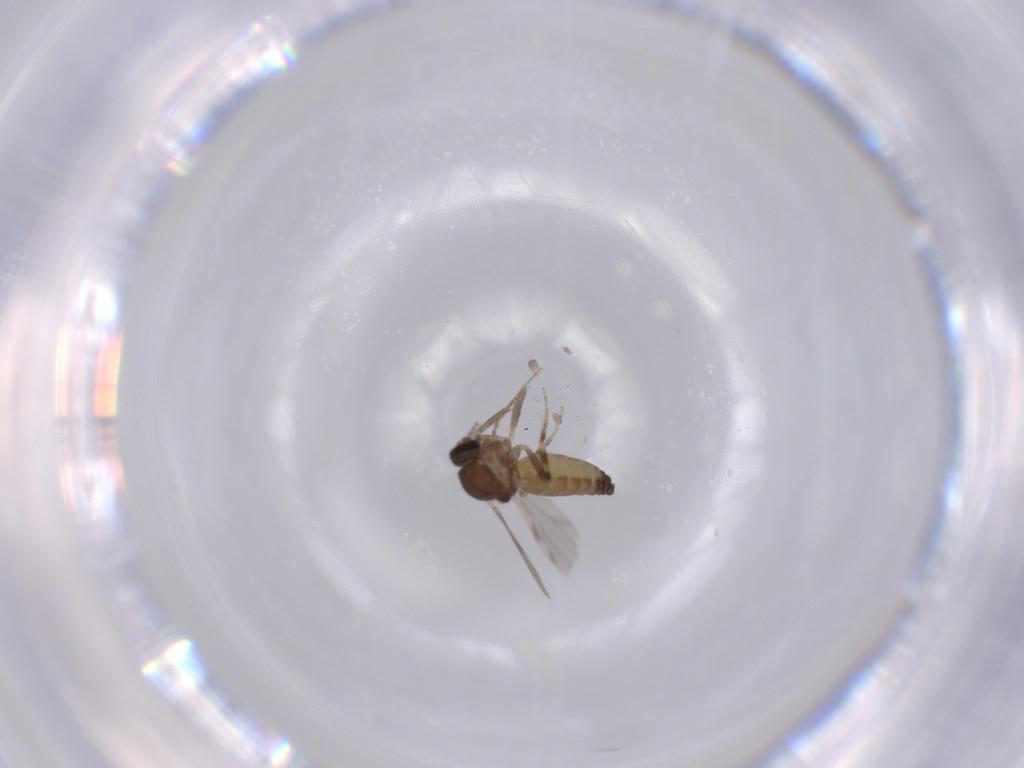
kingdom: Animalia
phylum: Arthropoda
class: Insecta
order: Diptera
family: Ceratopogonidae
